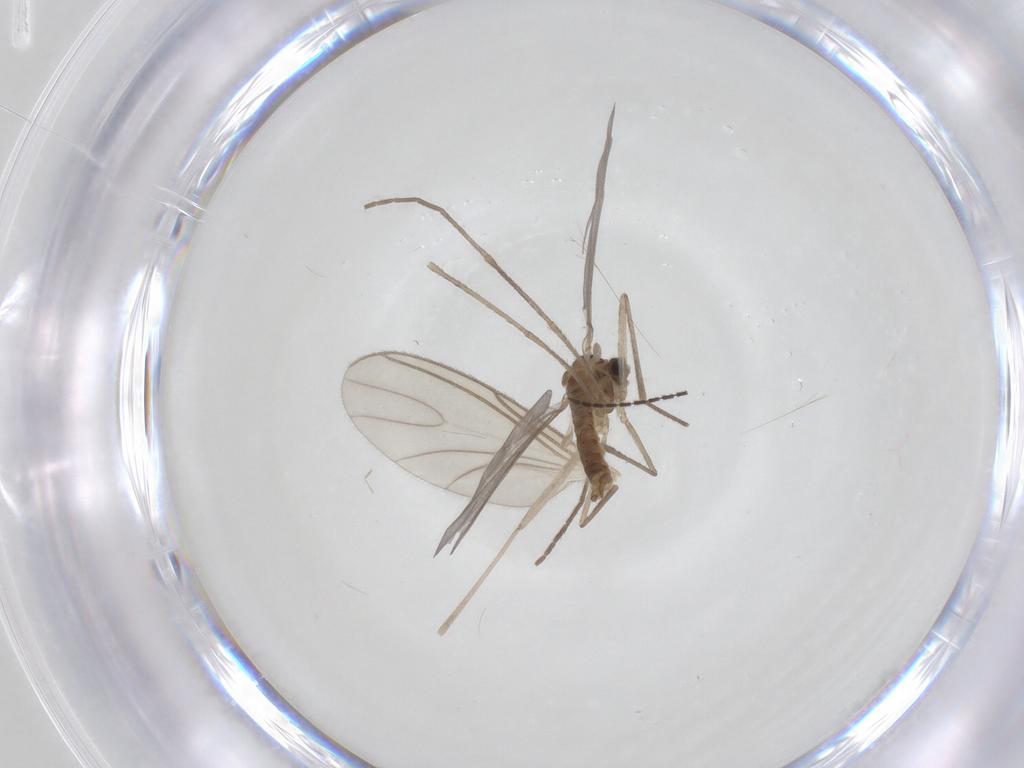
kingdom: Animalia
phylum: Arthropoda
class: Insecta
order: Diptera
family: Cecidomyiidae
